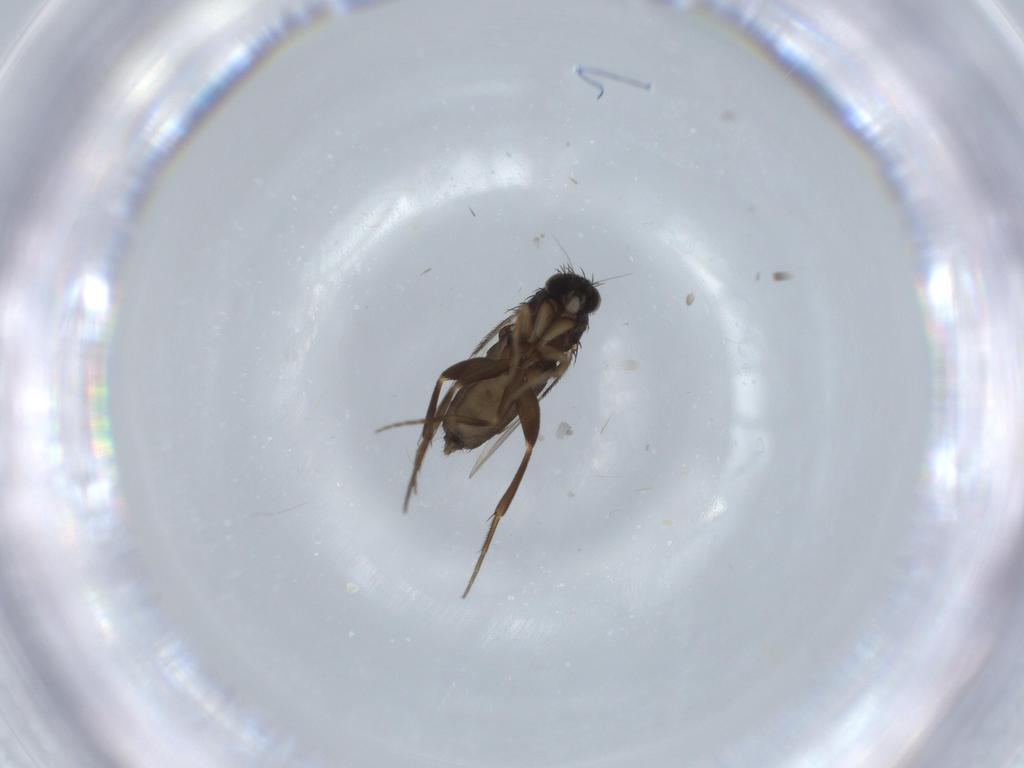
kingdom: Animalia
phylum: Arthropoda
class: Insecta
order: Diptera
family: Phoridae
